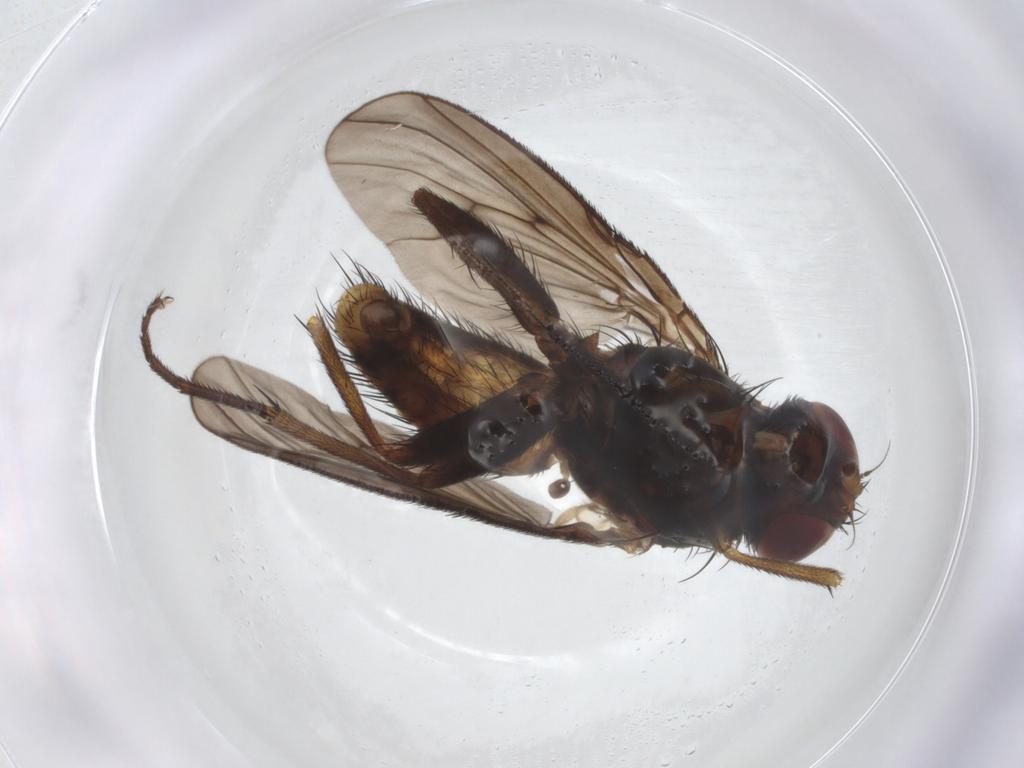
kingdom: Animalia
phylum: Arthropoda
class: Insecta
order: Diptera
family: Muscidae
